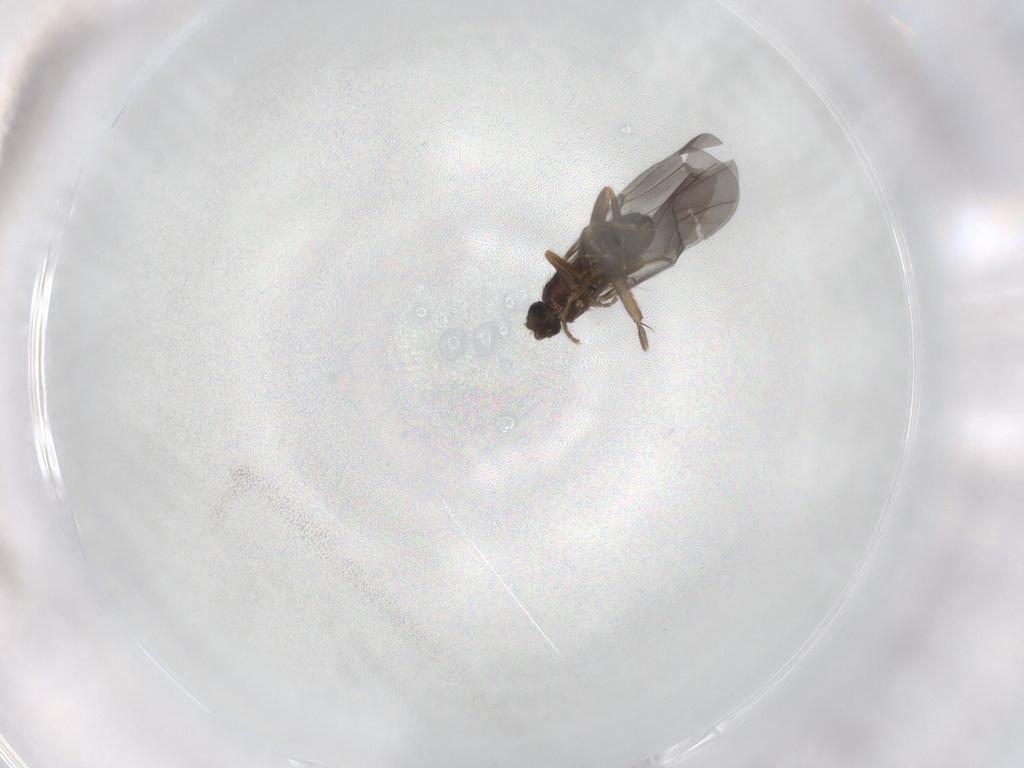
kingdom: Animalia
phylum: Arthropoda
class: Insecta
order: Diptera
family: Phoridae
